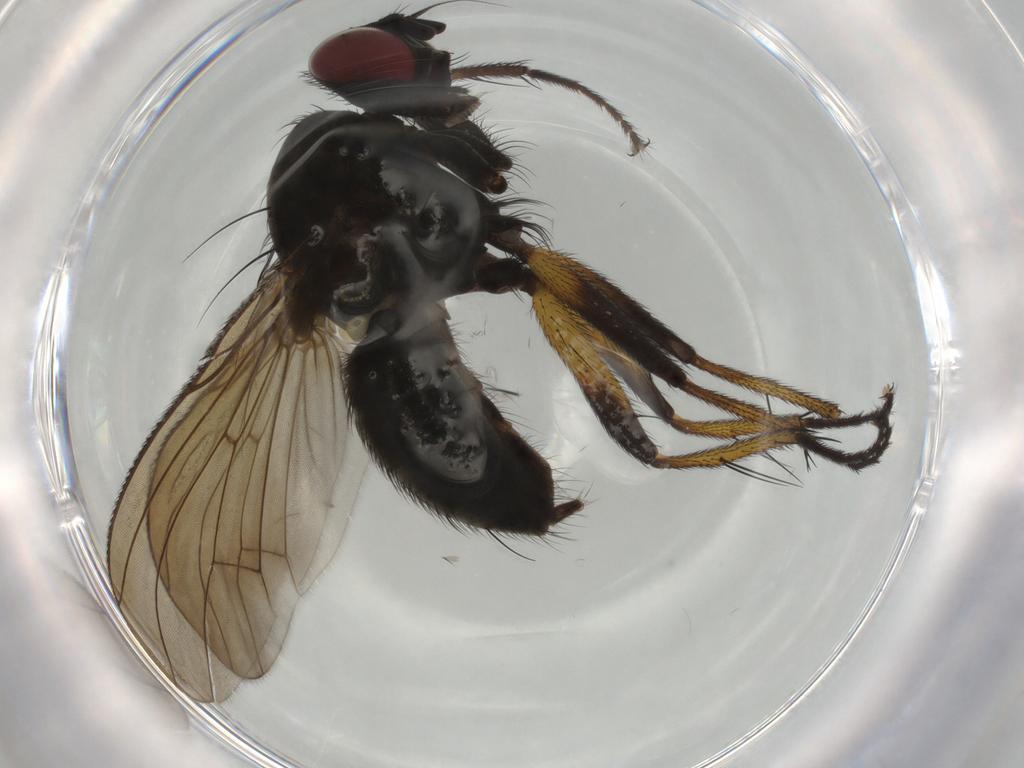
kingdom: Animalia
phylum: Arthropoda
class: Insecta
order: Diptera
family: Muscidae
